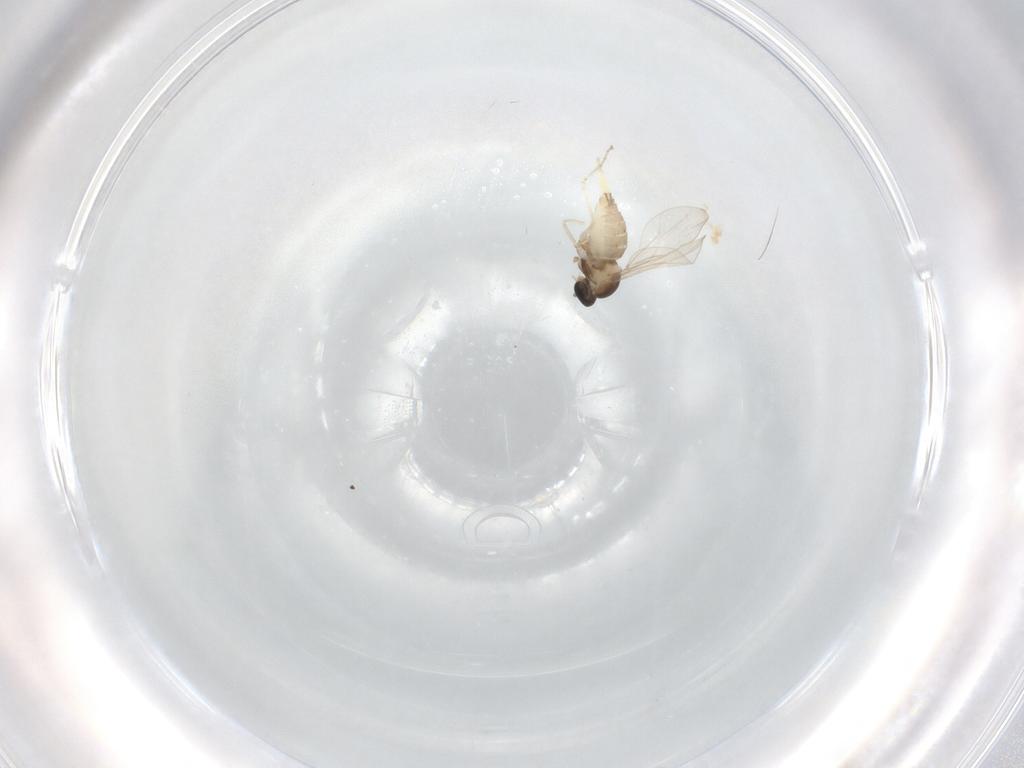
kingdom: Animalia
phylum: Arthropoda
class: Insecta
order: Diptera
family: Cecidomyiidae
